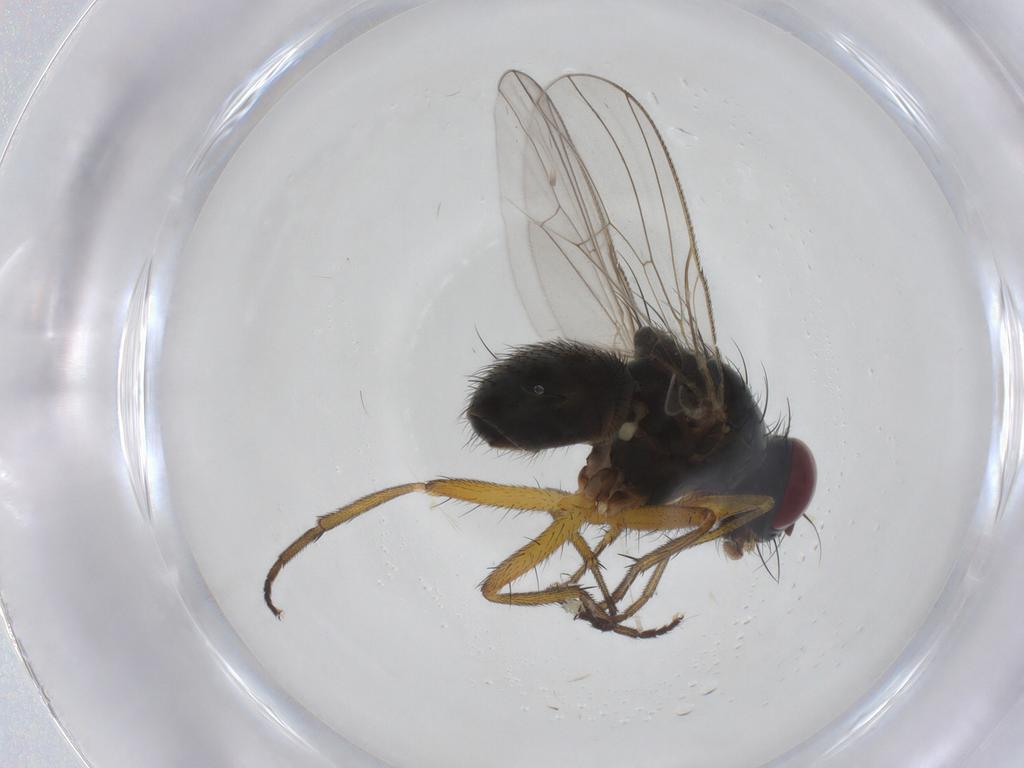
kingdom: Animalia
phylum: Arthropoda
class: Insecta
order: Diptera
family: Muscidae
